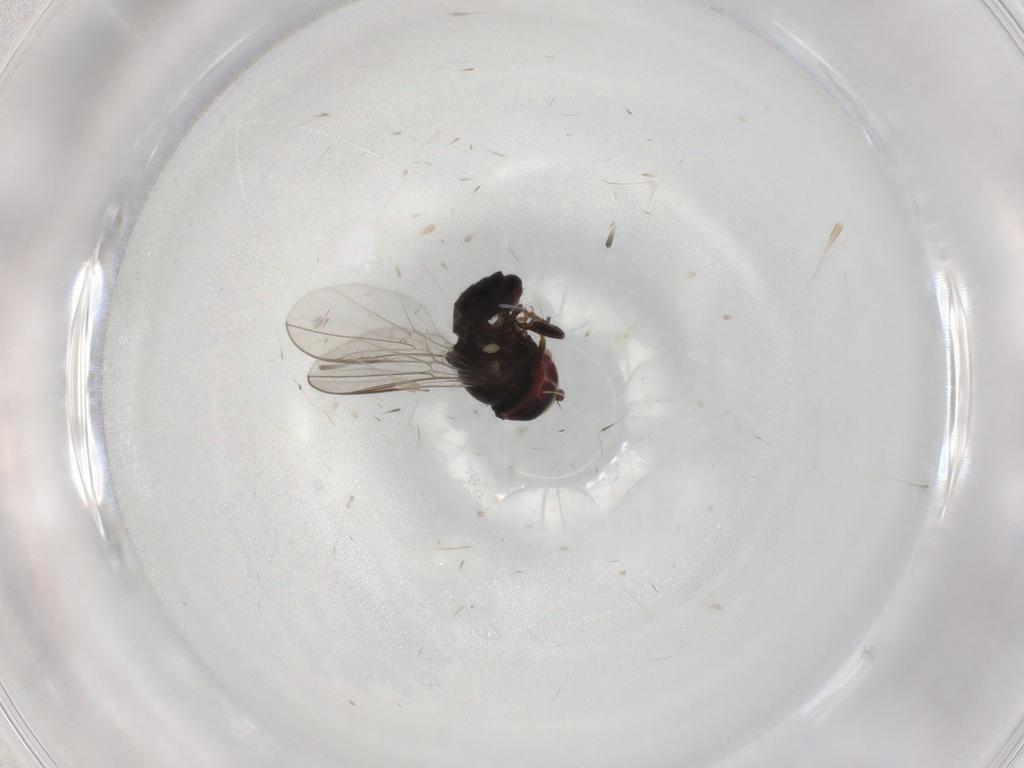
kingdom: Animalia
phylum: Arthropoda
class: Insecta
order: Diptera
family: Pipunculidae
